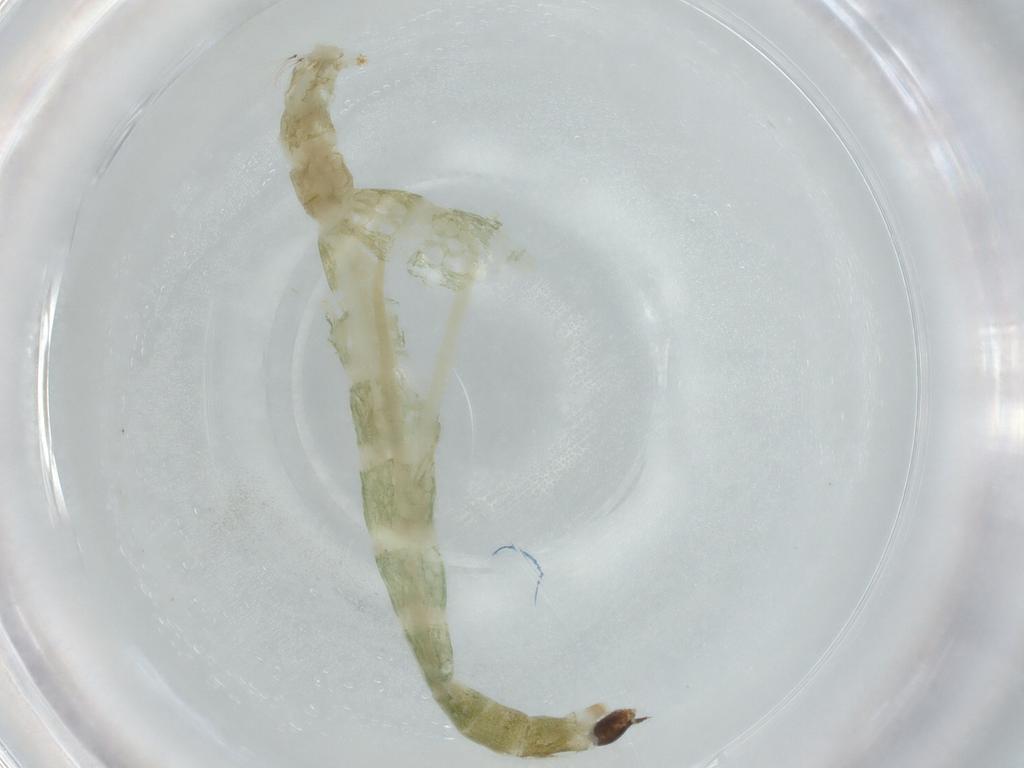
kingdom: Animalia
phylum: Arthropoda
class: Insecta
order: Diptera
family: Chironomidae
